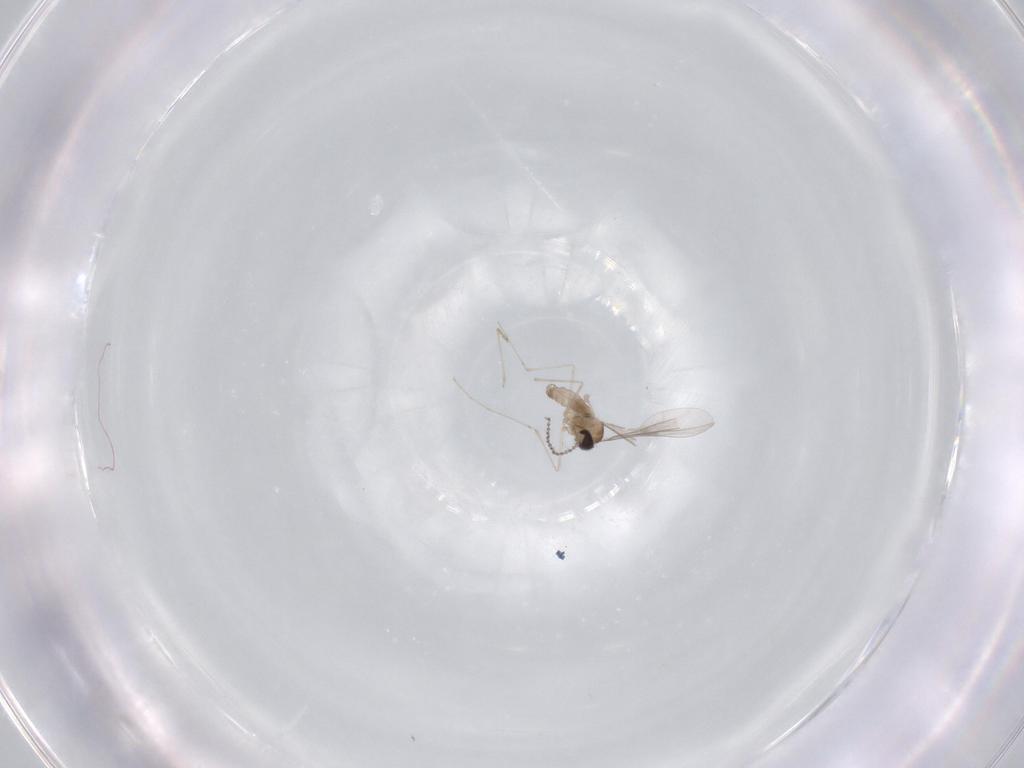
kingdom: Animalia
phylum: Arthropoda
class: Insecta
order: Diptera
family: Cecidomyiidae
